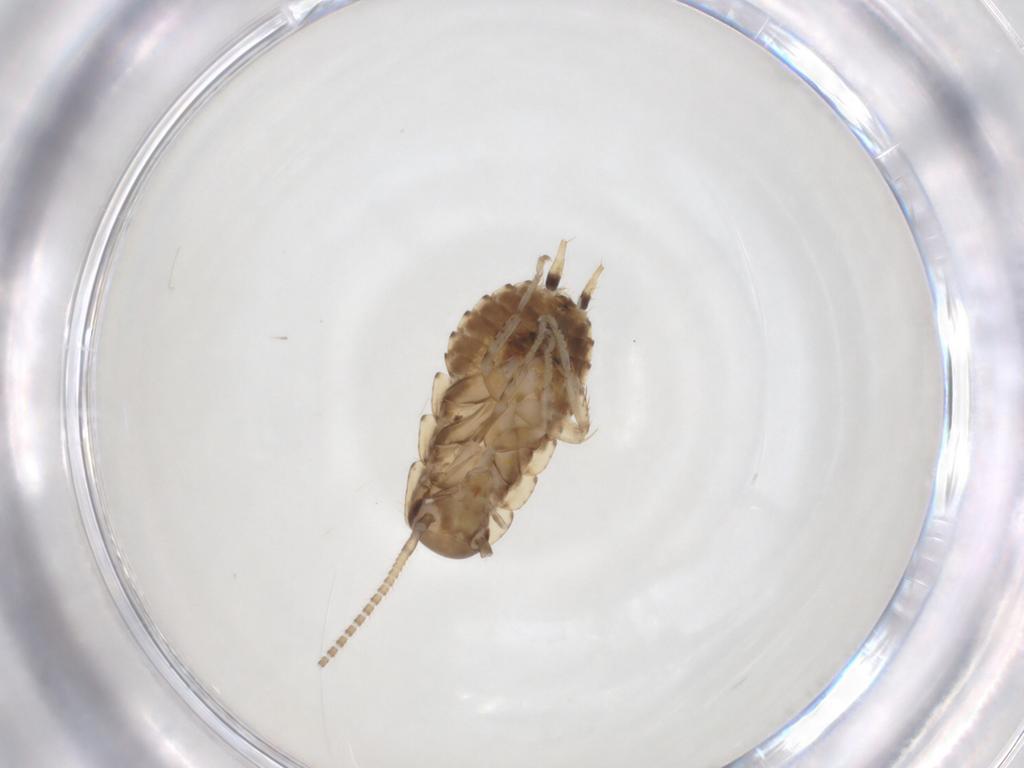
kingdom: Animalia
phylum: Arthropoda
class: Insecta
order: Blattodea
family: Blaberidae
